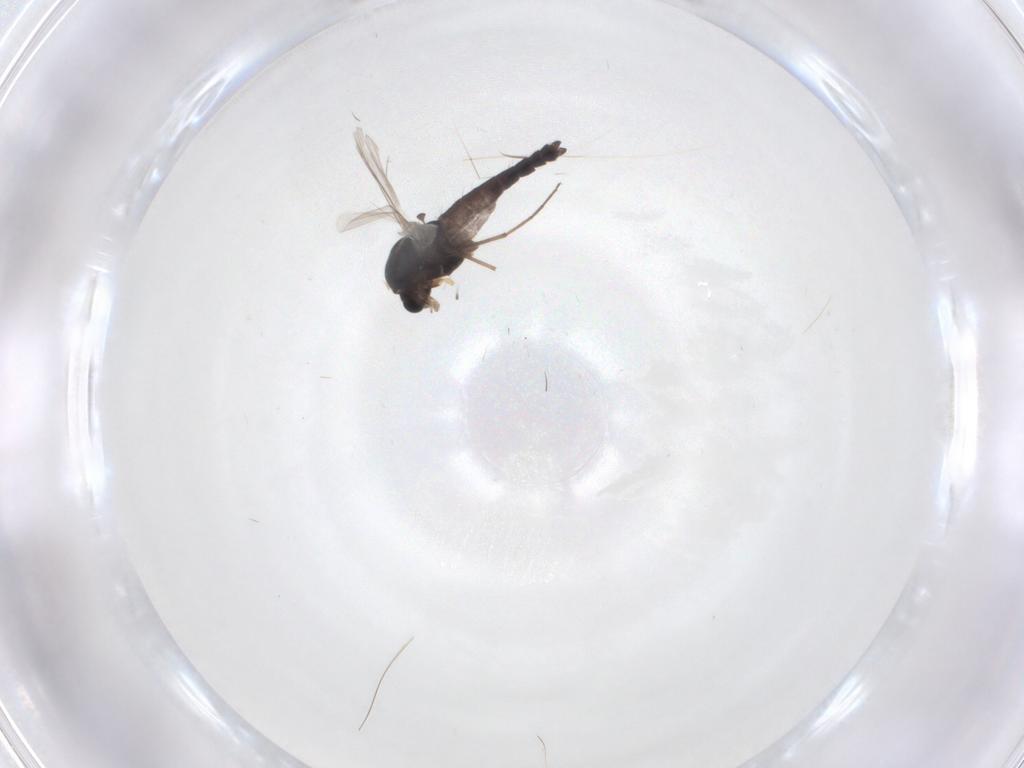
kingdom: Animalia
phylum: Arthropoda
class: Insecta
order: Diptera
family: Chironomidae
